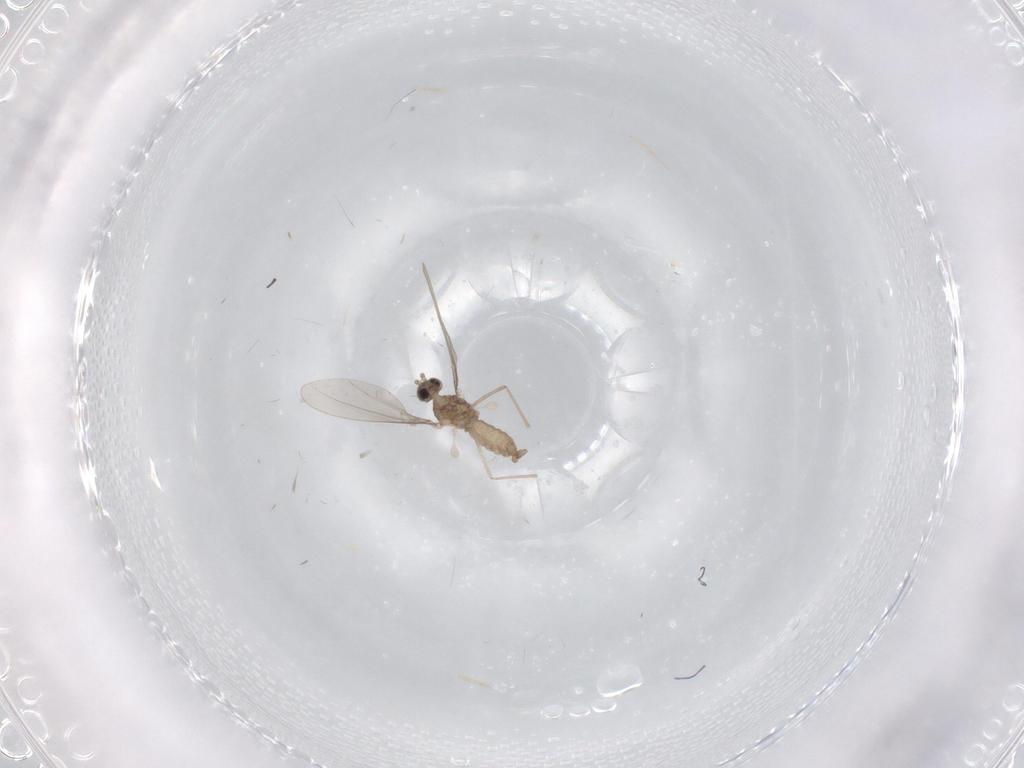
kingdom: Animalia
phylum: Arthropoda
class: Insecta
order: Diptera
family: Cecidomyiidae
